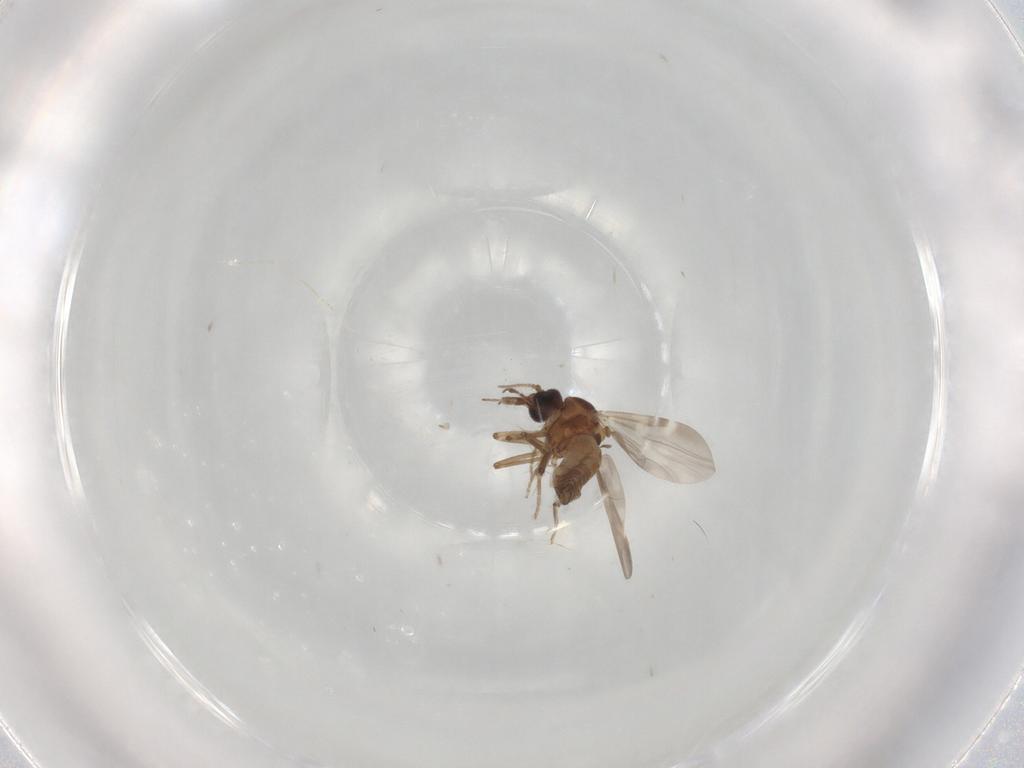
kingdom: Animalia
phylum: Arthropoda
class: Insecta
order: Diptera
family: Ceratopogonidae
